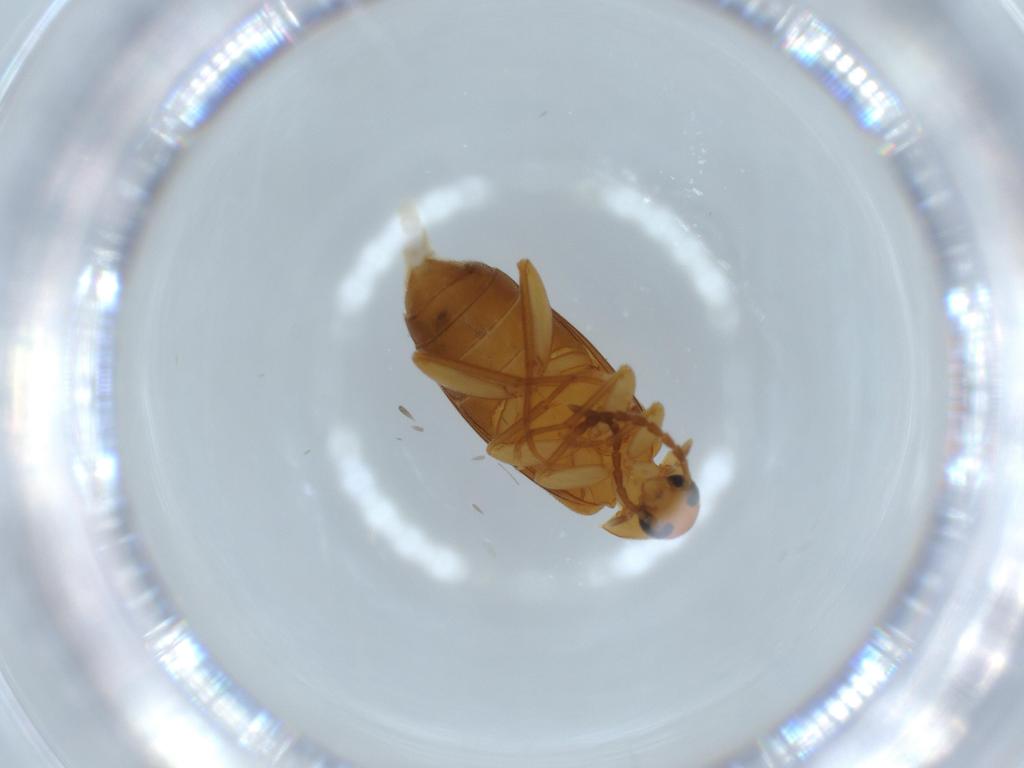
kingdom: Animalia
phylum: Arthropoda
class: Insecta
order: Coleoptera
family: Scraptiidae
